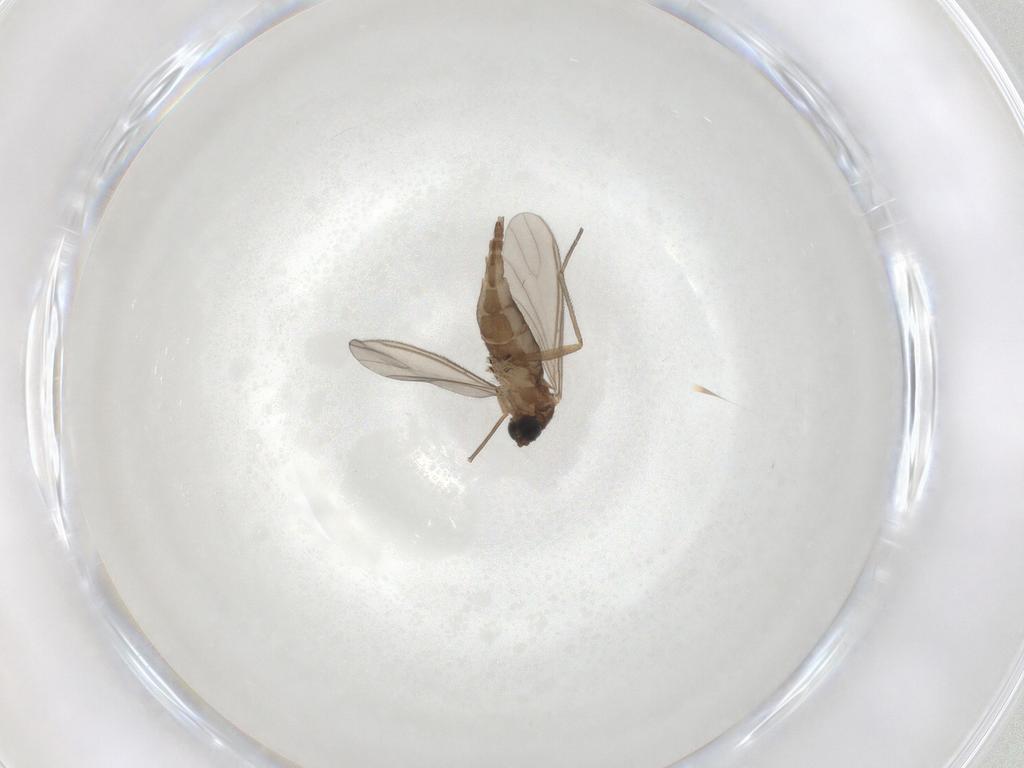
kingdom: Animalia
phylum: Arthropoda
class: Insecta
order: Diptera
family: Sciaridae
